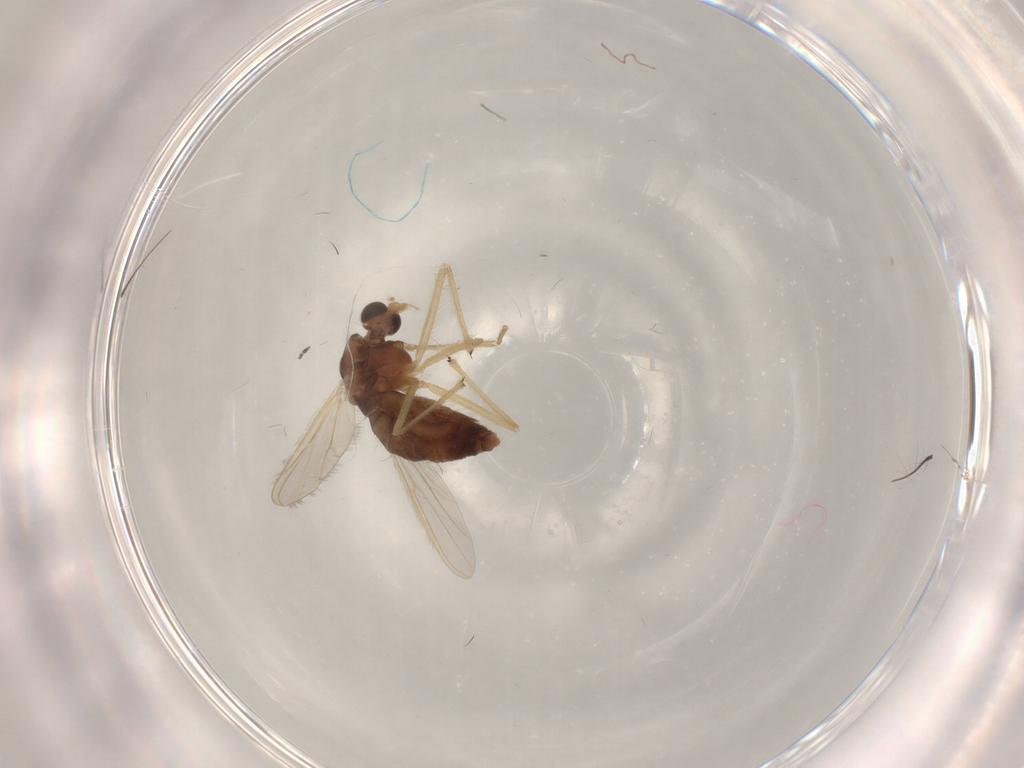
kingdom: Animalia
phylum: Arthropoda
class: Insecta
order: Diptera
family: Chironomidae
